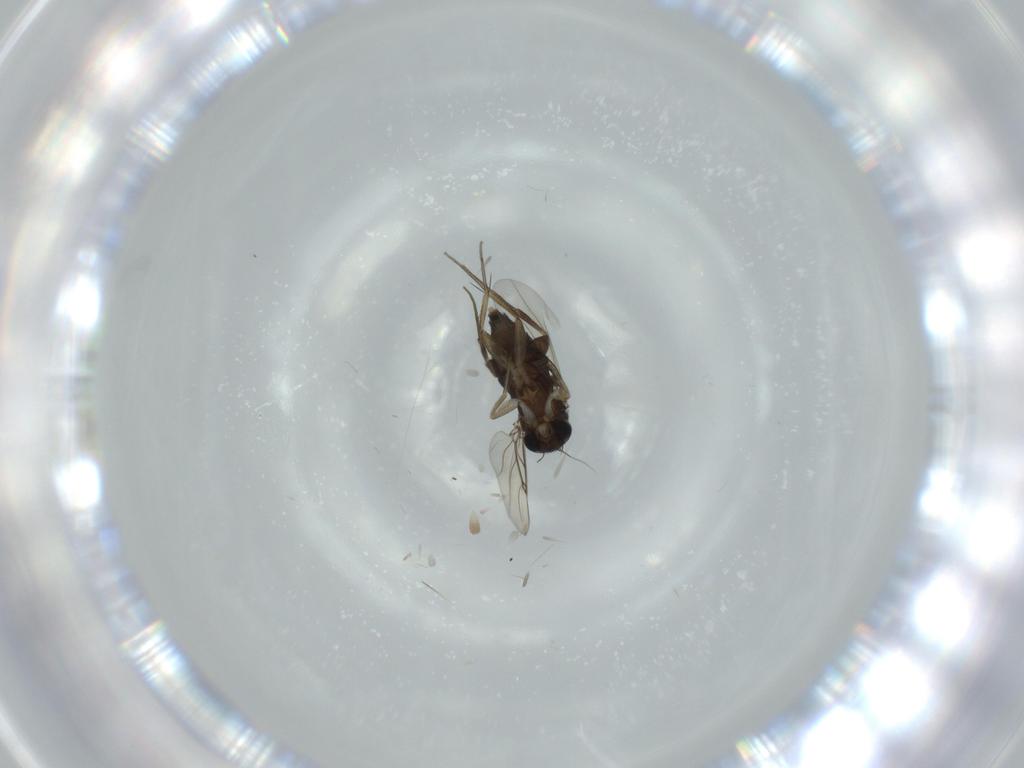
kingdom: Animalia
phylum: Arthropoda
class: Insecta
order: Diptera
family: Phoridae
